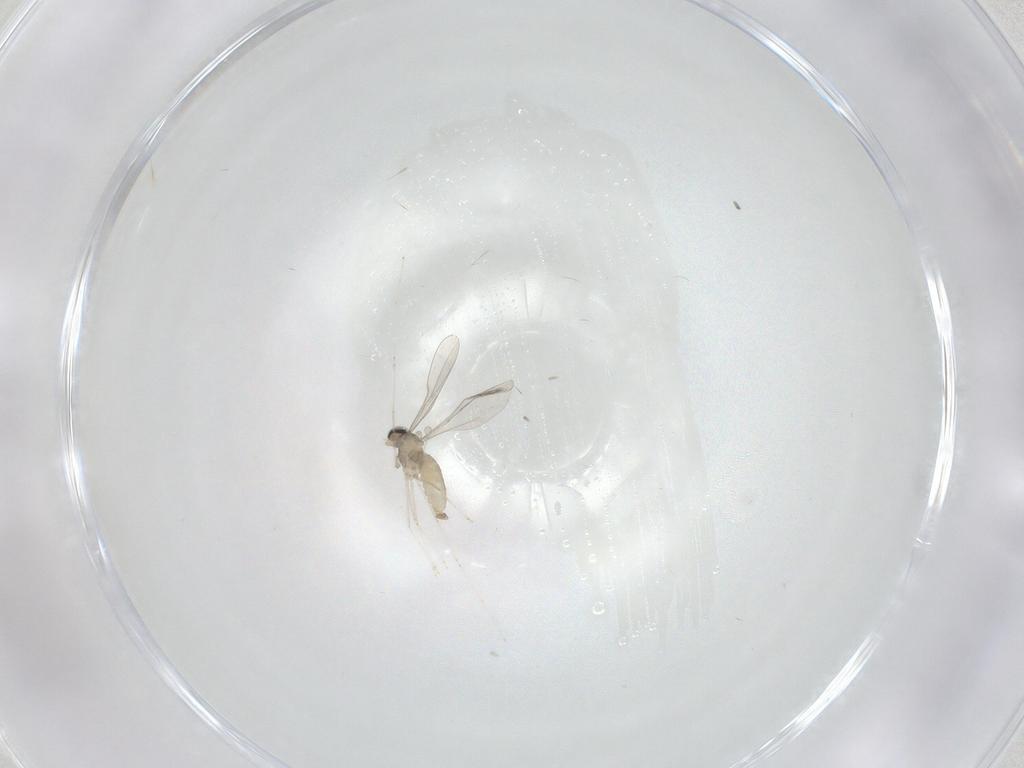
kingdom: Animalia
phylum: Arthropoda
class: Insecta
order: Diptera
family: Cecidomyiidae
